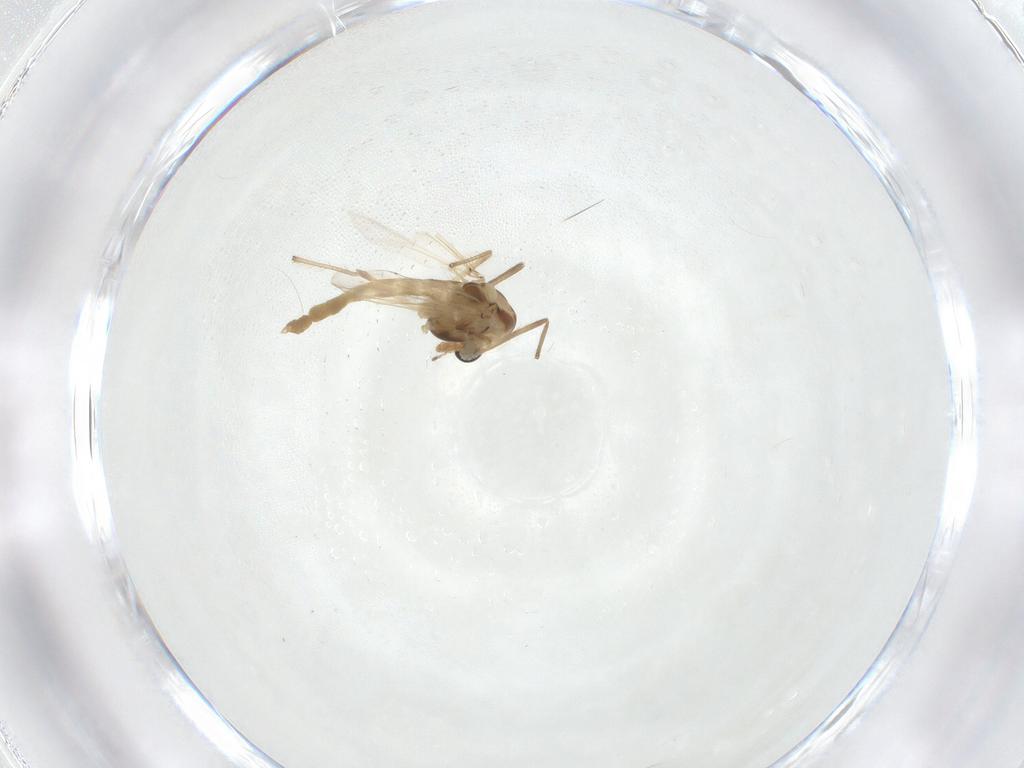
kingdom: Animalia
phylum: Arthropoda
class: Insecta
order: Diptera
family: Chironomidae
